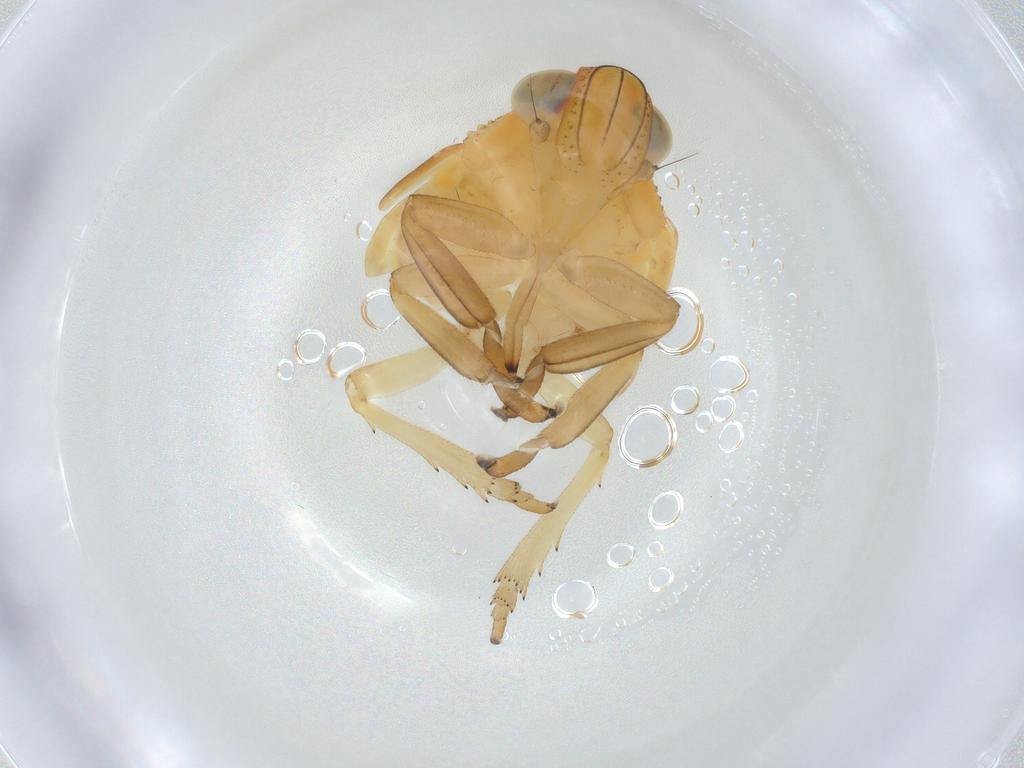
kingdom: Animalia
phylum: Arthropoda
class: Insecta
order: Hemiptera
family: Issidae
